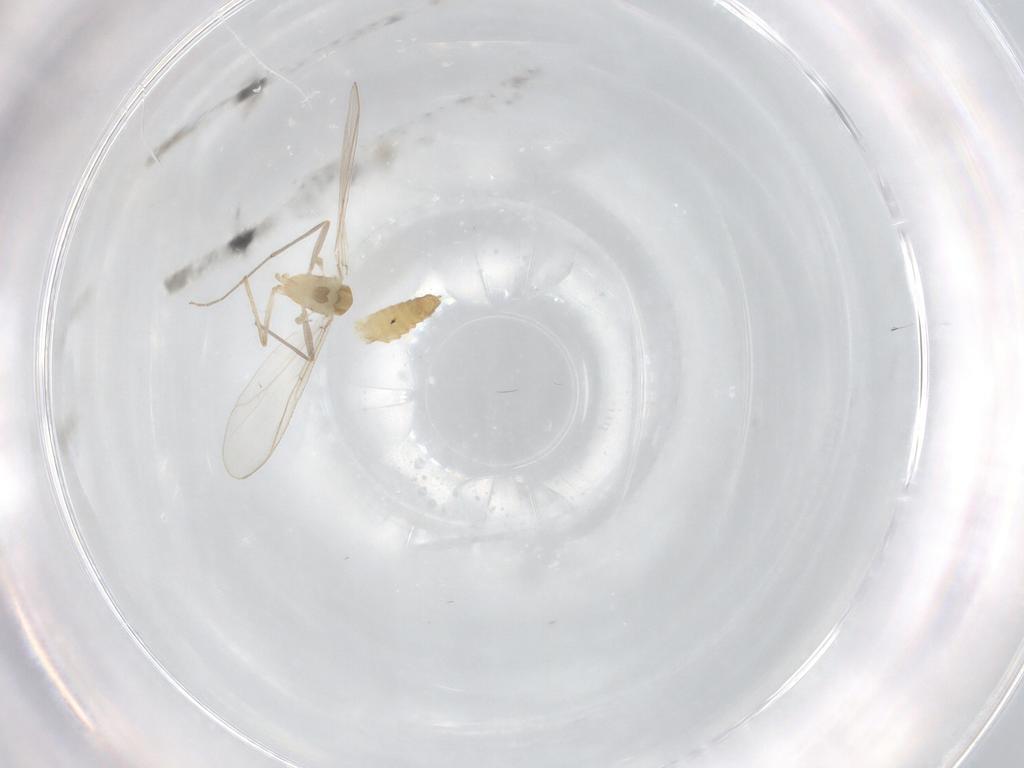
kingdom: Animalia
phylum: Arthropoda
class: Insecta
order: Diptera
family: Chironomidae
